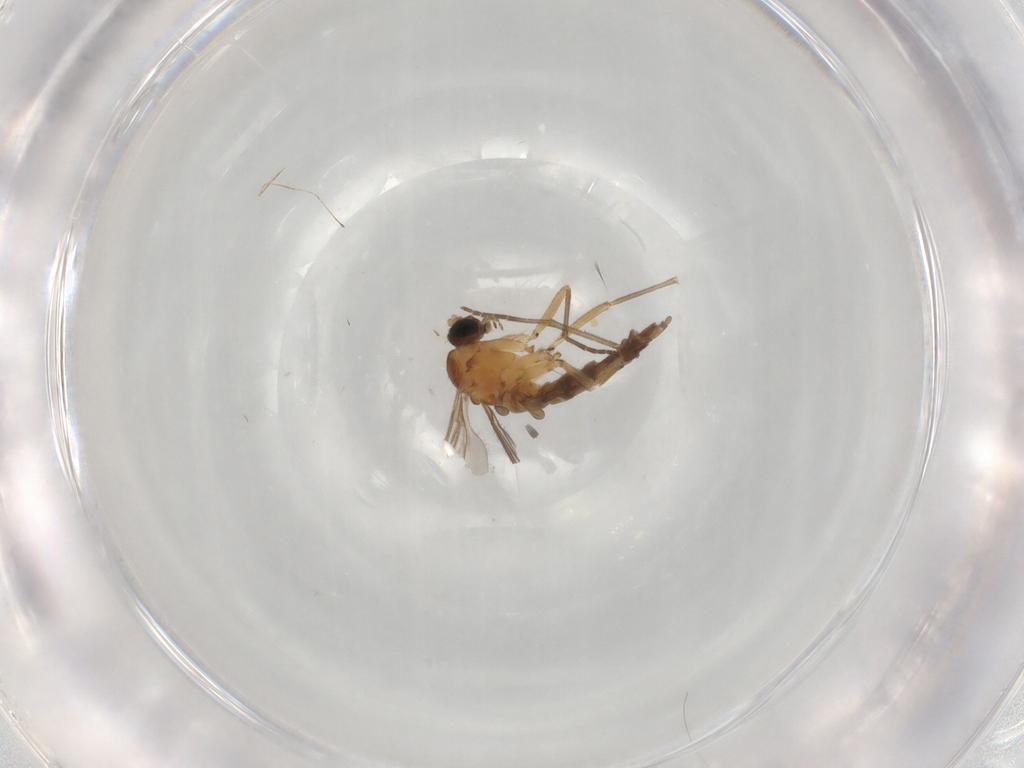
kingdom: Animalia
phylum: Arthropoda
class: Insecta
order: Diptera
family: Sciaridae
